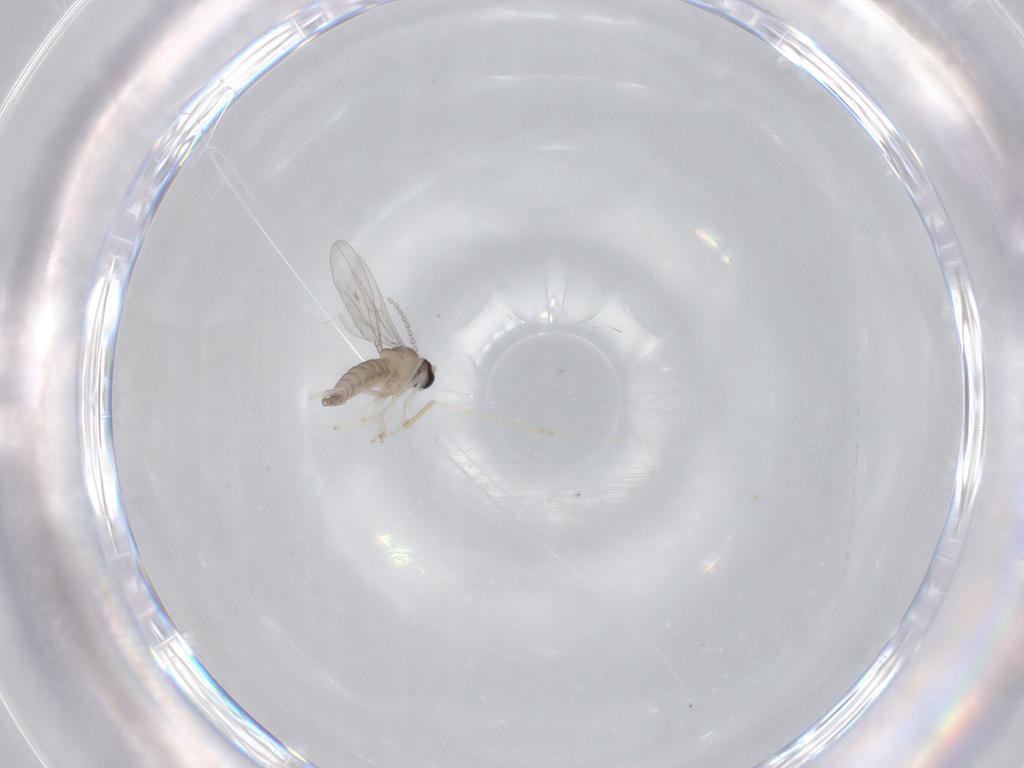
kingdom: Animalia
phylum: Arthropoda
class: Insecta
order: Diptera
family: Cecidomyiidae
